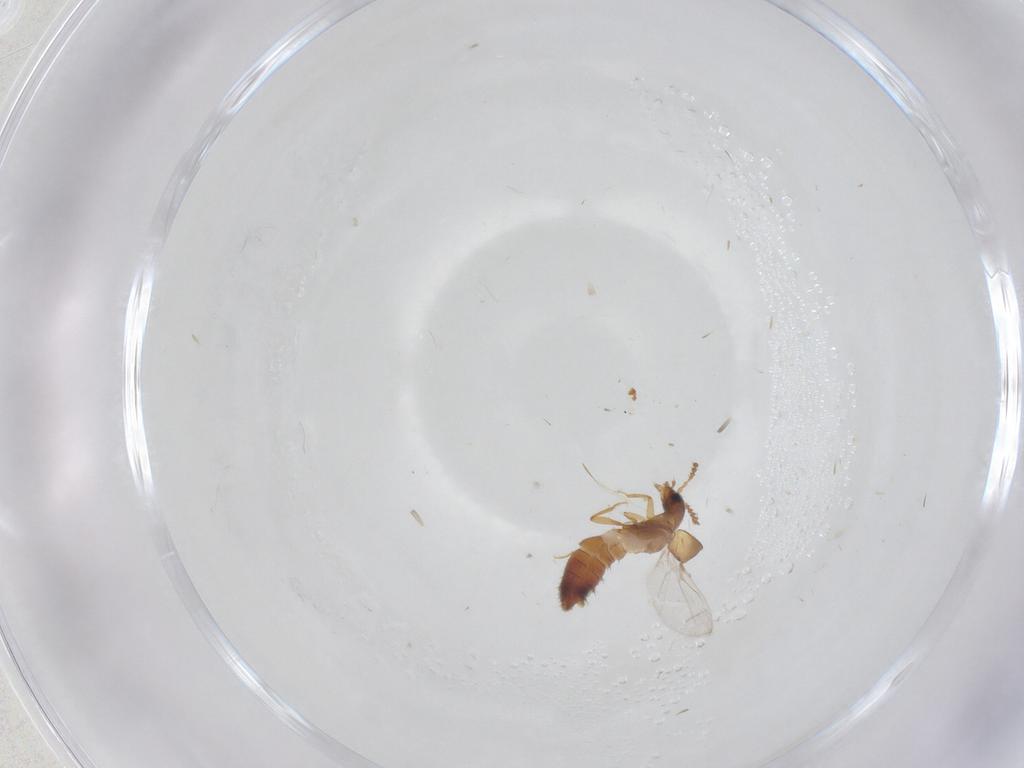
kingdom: Animalia
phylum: Arthropoda
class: Insecta
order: Coleoptera
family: Staphylinidae
